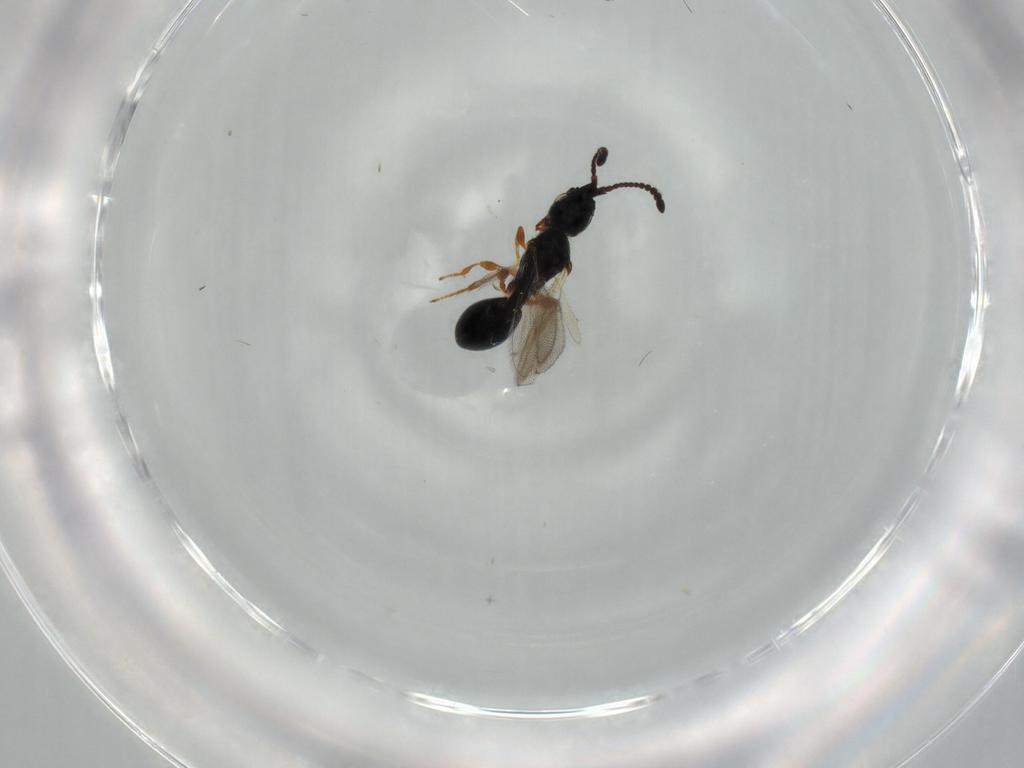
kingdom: Animalia
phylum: Arthropoda
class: Insecta
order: Hymenoptera
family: Diapriidae
